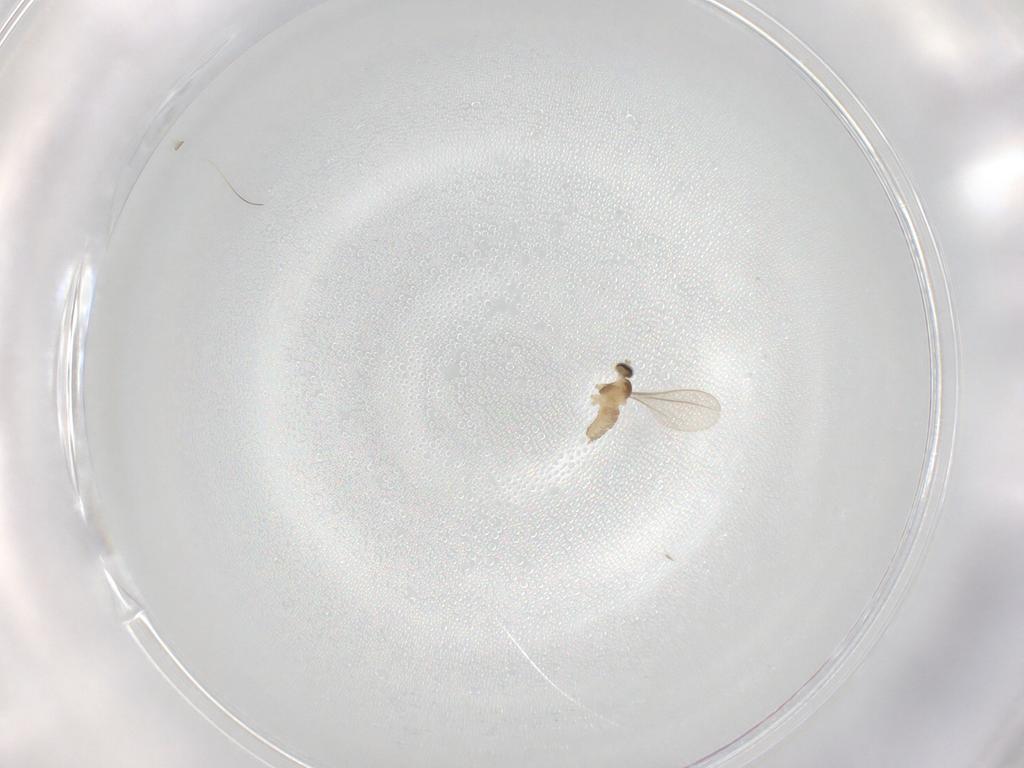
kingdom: Animalia
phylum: Arthropoda
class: Insecta
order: Diptera
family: Cecidomyiidae
